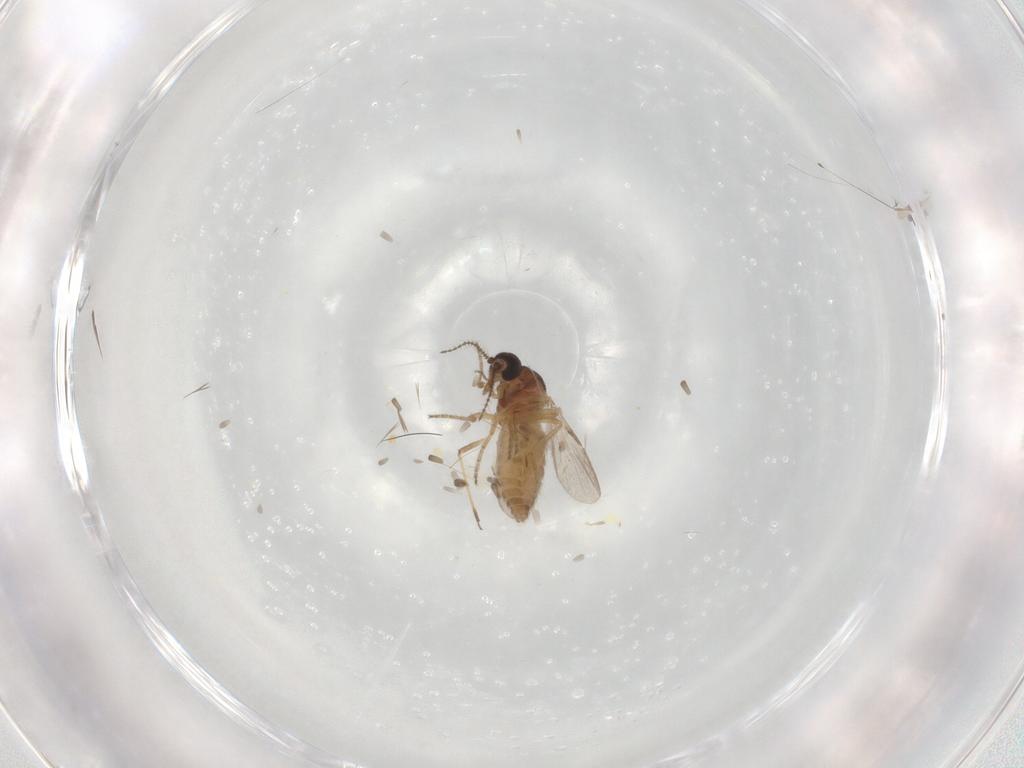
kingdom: Animalia
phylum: Arthropoda
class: Insecta
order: Diptera
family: Ceratopogonidae
